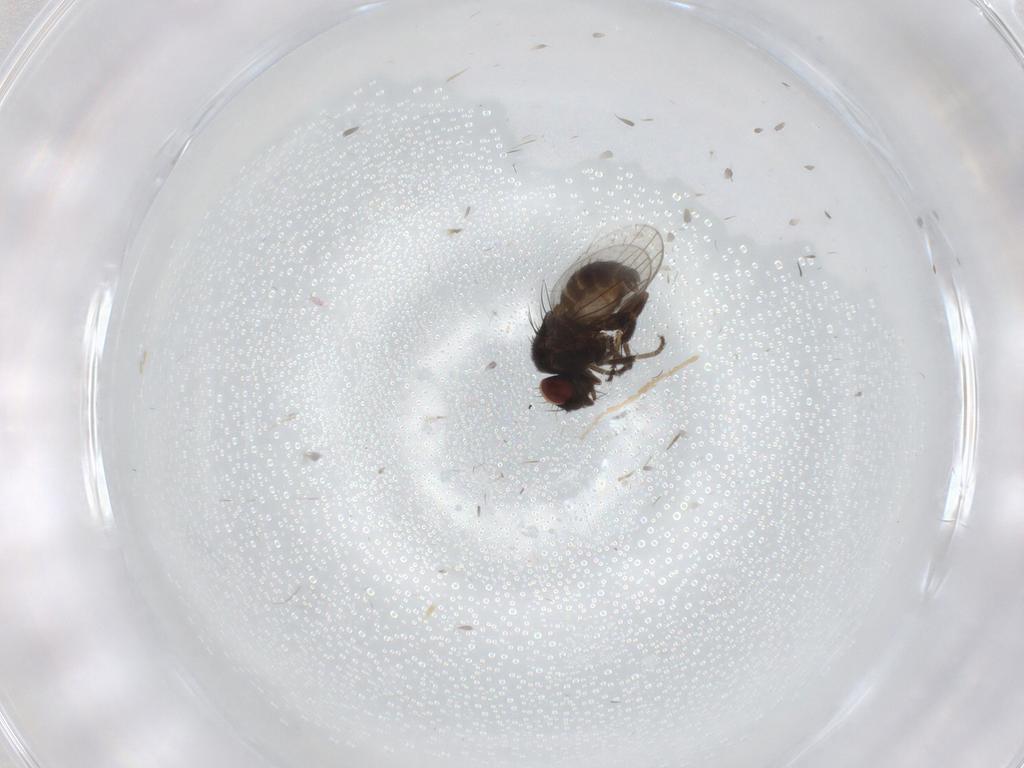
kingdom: Animalia
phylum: Arthropoda
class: Insecta
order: Diptera
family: Milichiidae
